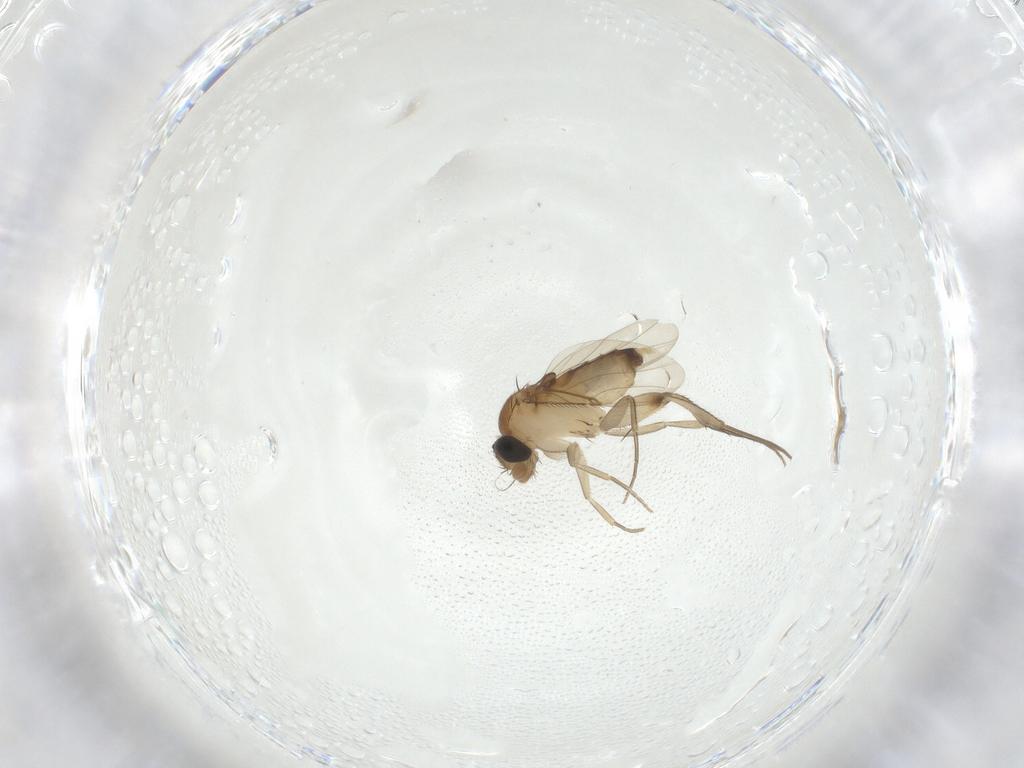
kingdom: Animalia
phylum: Arthropoda
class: Insecta
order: Diptera
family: Phoridae
